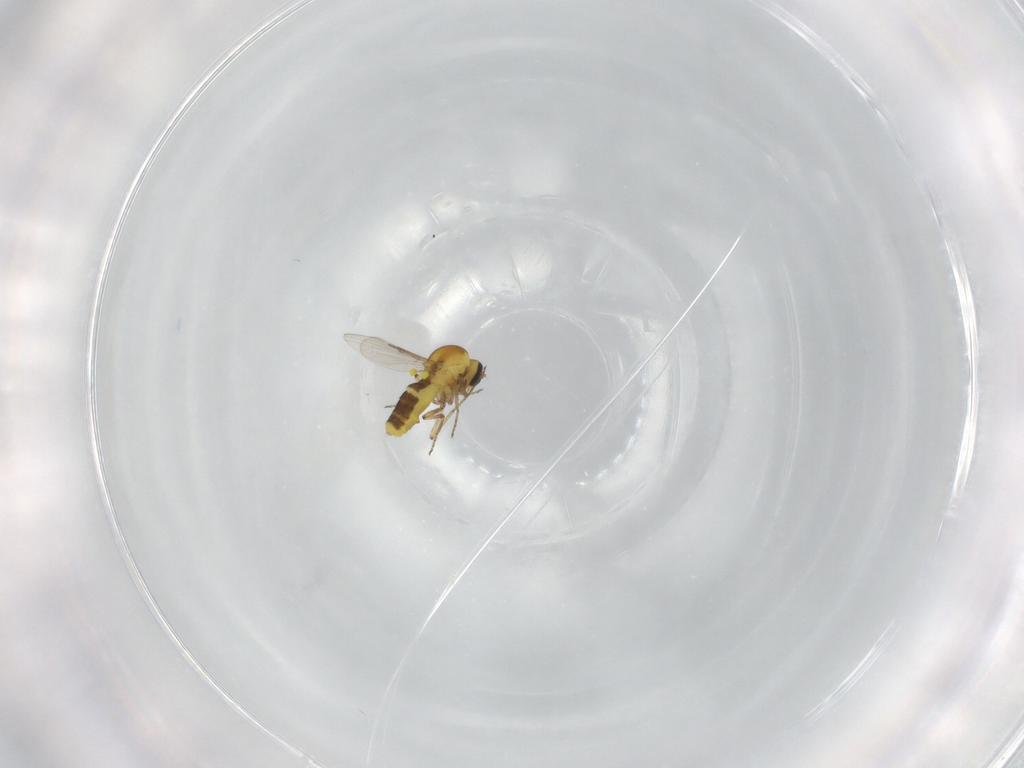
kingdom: Animalia
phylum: Arthropoda
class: Insecta
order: Diptera
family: Ceratopogonidae
